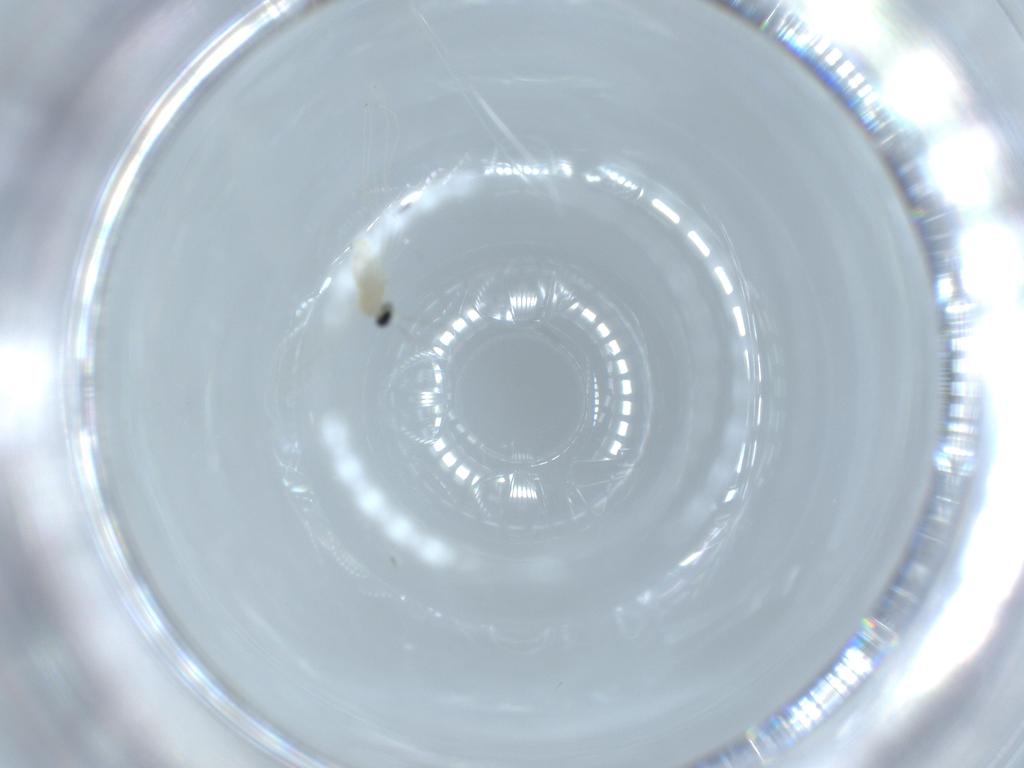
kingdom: Animalia
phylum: Arthropoda
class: Insecta
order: Diptera
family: Cecidomyiidae
